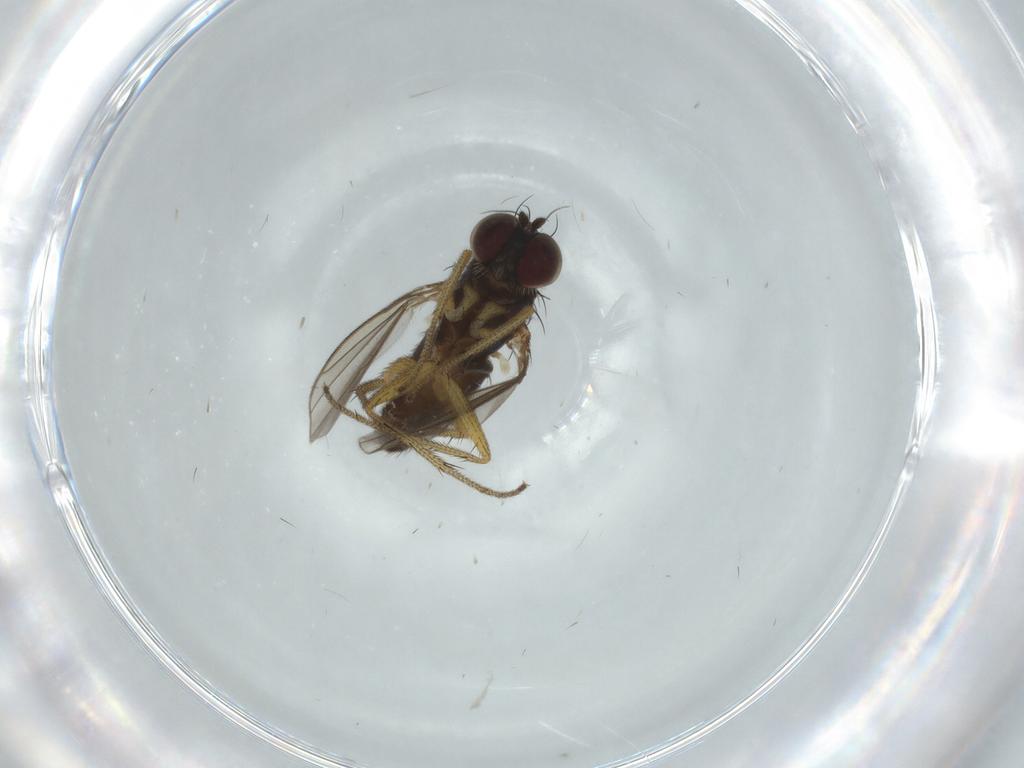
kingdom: Animalia
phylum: Arthropoda
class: Insecta
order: Diptera
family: Dolichopodidae
